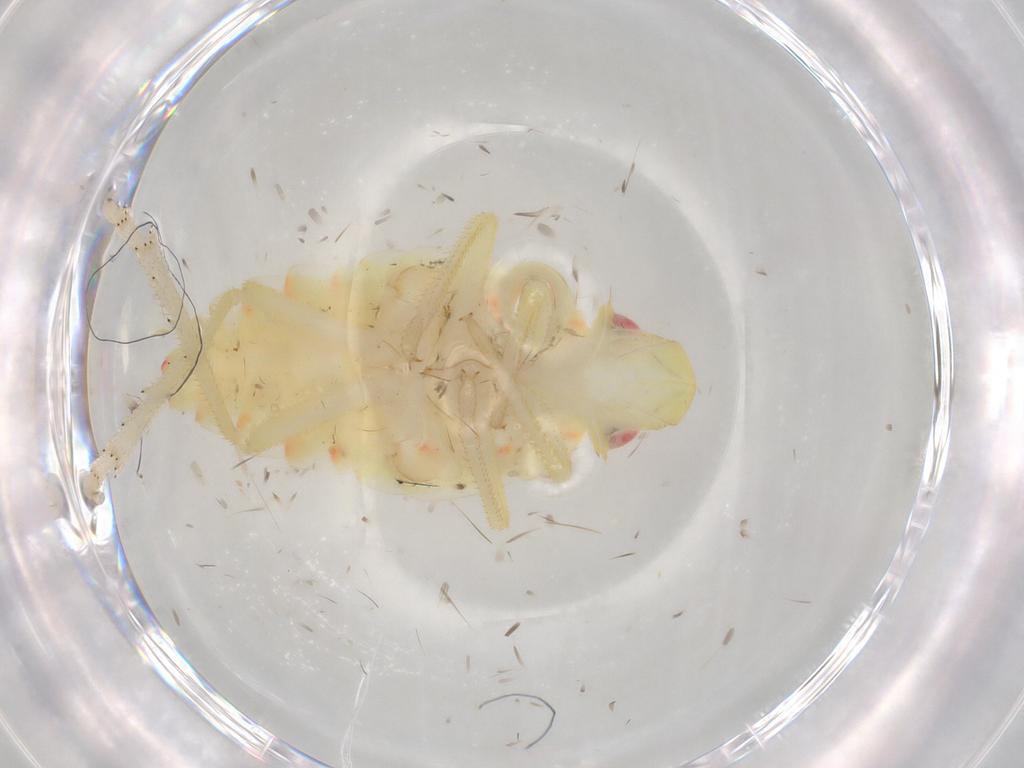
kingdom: Animalia
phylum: Arthropoda
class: Insecta
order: Hemiptera
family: Tropiduchidae
